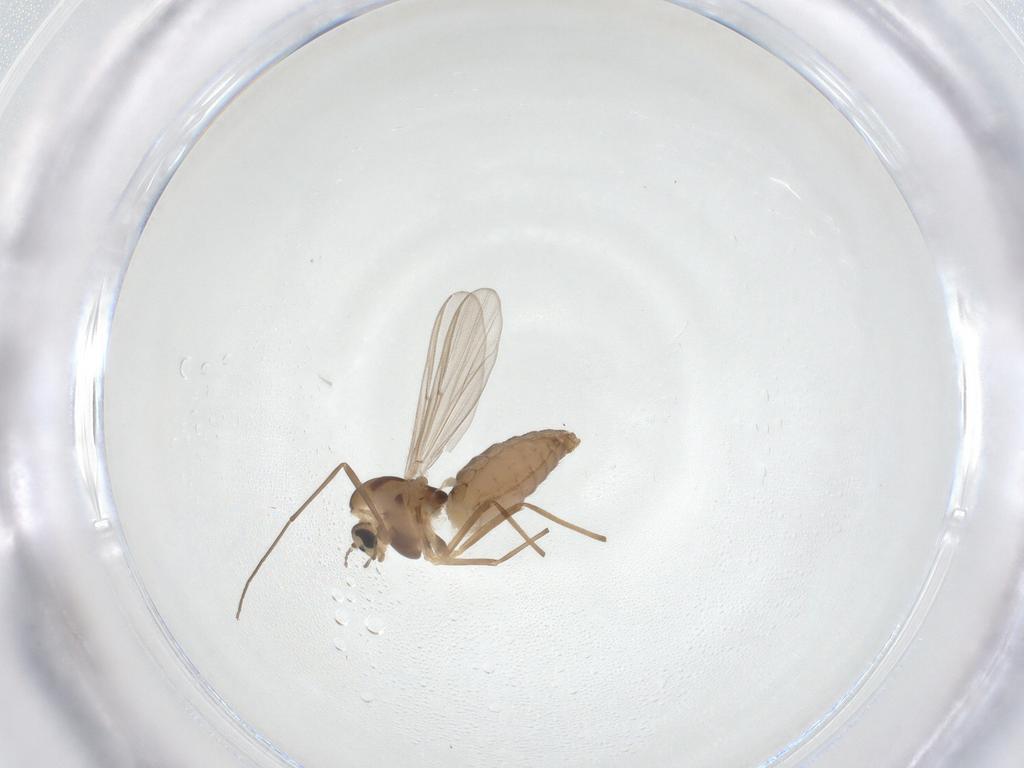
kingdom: Animalia
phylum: Arthropoda
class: Insecta
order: Diptera
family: Chironomidae
